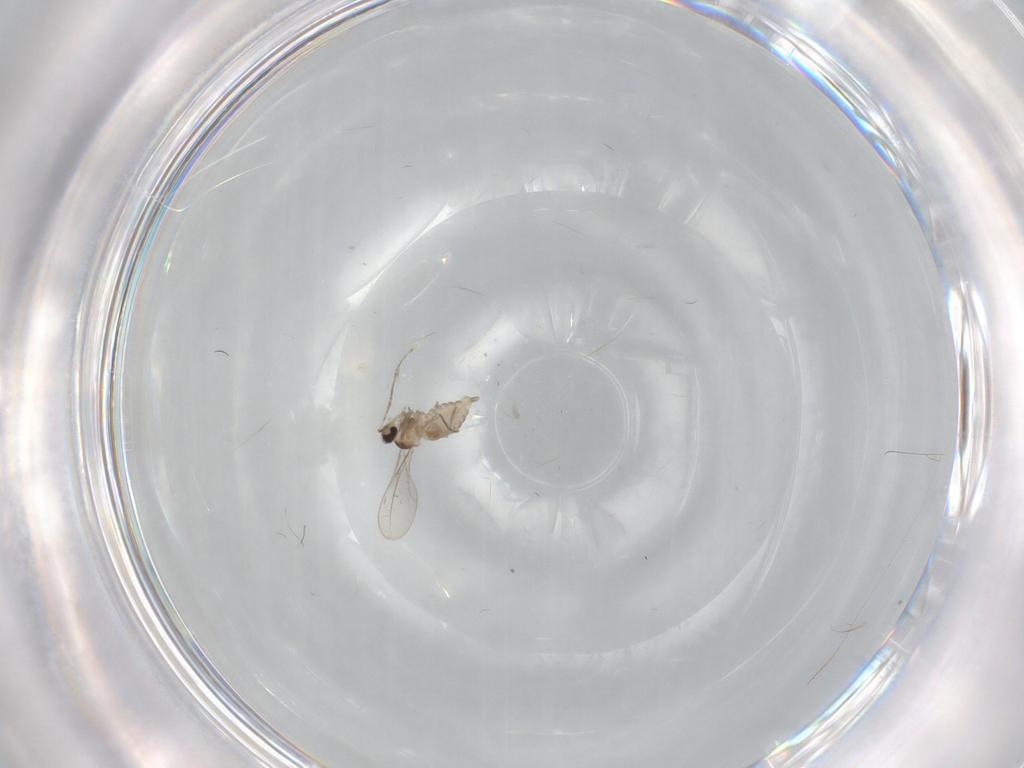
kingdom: Animalia
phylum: Arthropoda
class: Insecta
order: Diptera
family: Cecidomyiidae
